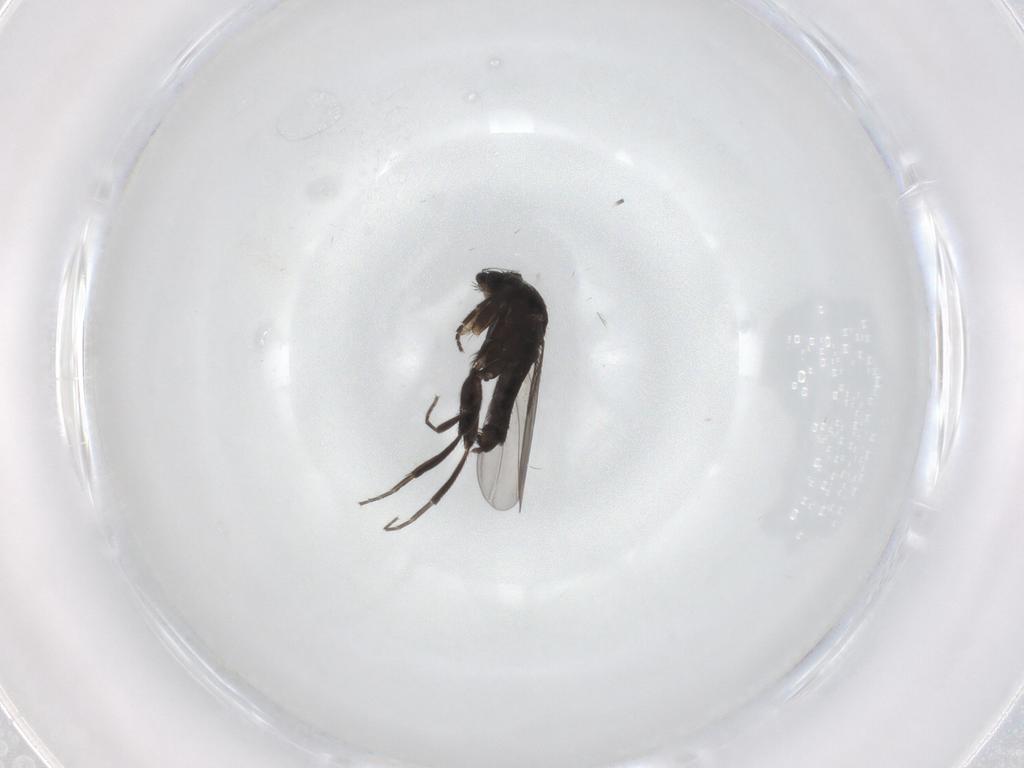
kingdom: Animalia
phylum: Arthropoda
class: Insecta
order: Diptera
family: Phoridae
